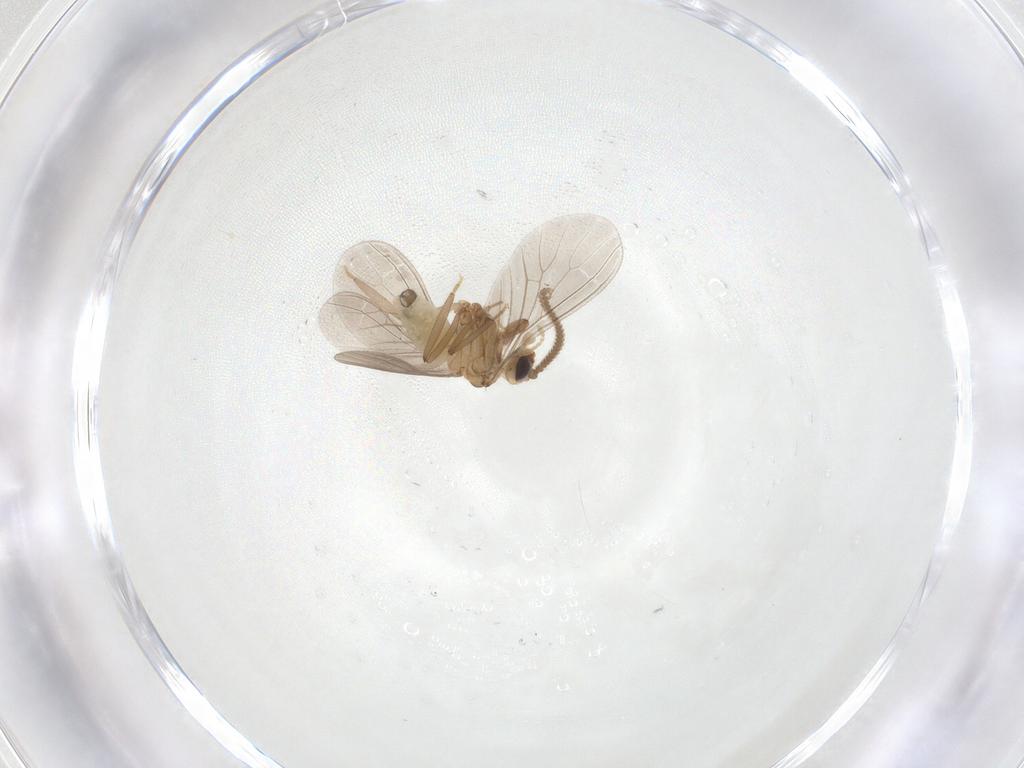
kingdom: Animalia
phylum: Arthropoda
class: Insecta
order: Neuroptera
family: Coniopterygidae
